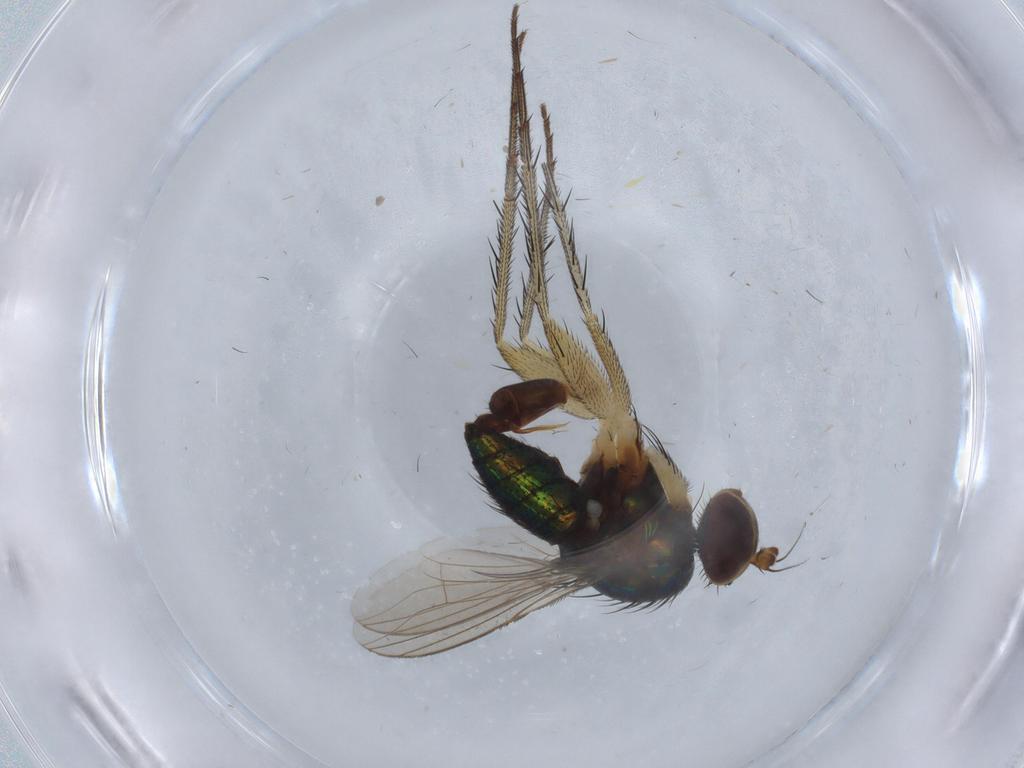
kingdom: Animalia
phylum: Arthropoda
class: Insecta
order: Diptera
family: Dolichopodidae
